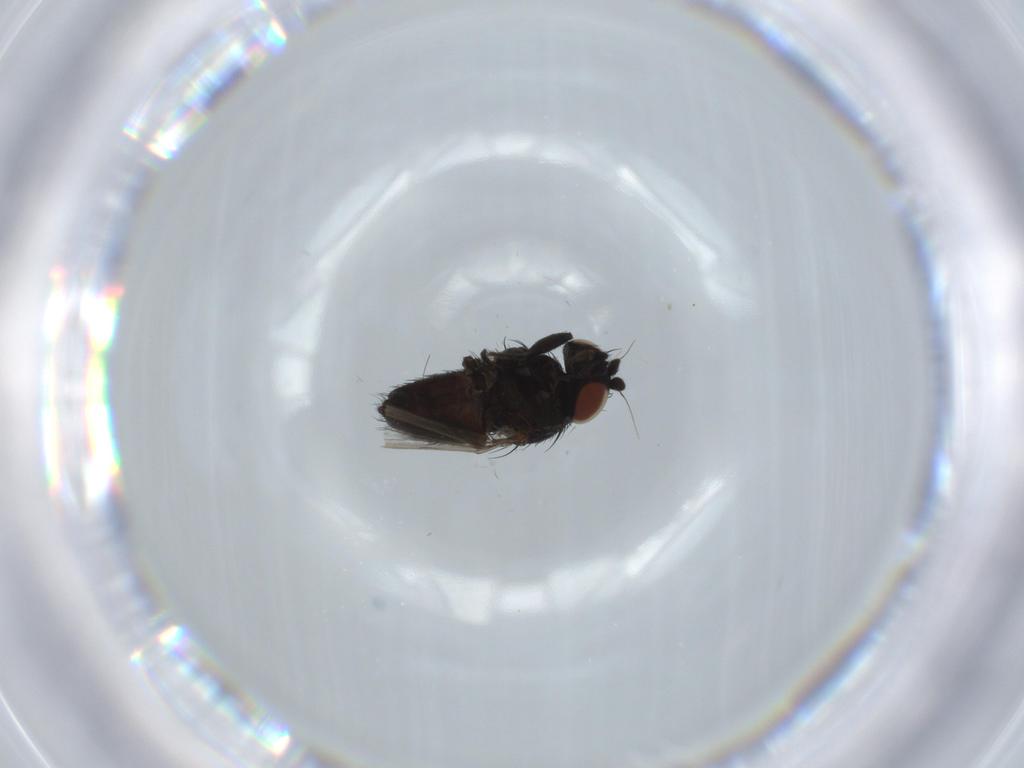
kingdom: Animalia
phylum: Arthropoda
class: Insecta
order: Diptera
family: Milichiidae
